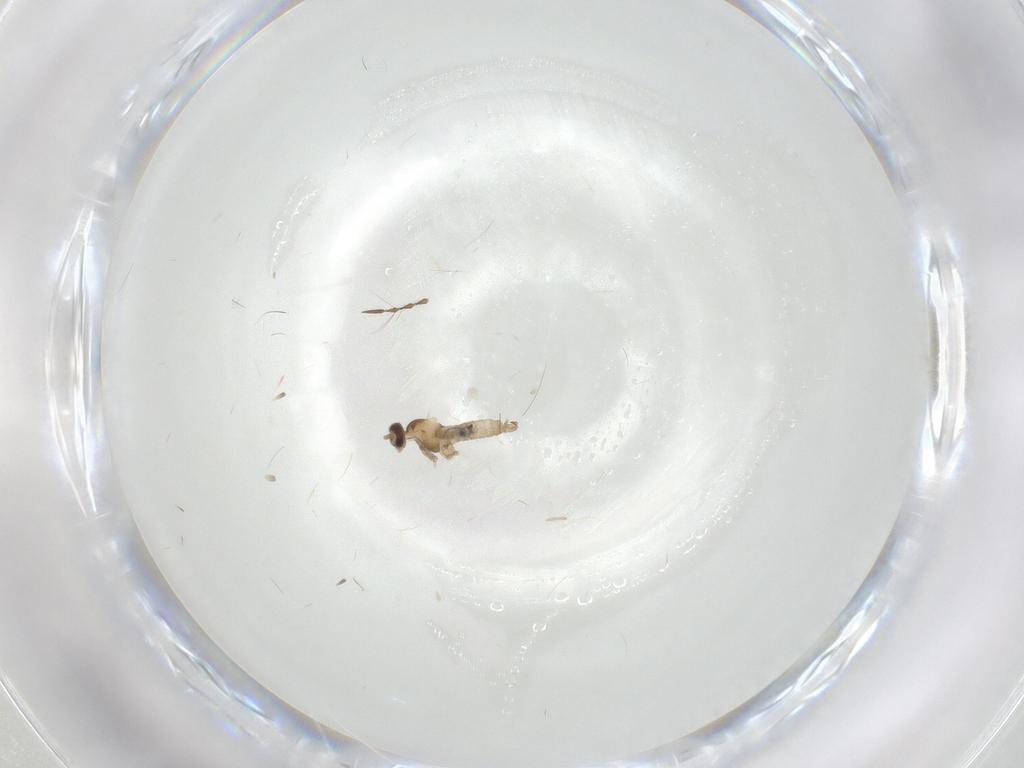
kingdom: Animalia
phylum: Arthropoda
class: Insecta
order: Diptera
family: Cecidomyiidae
